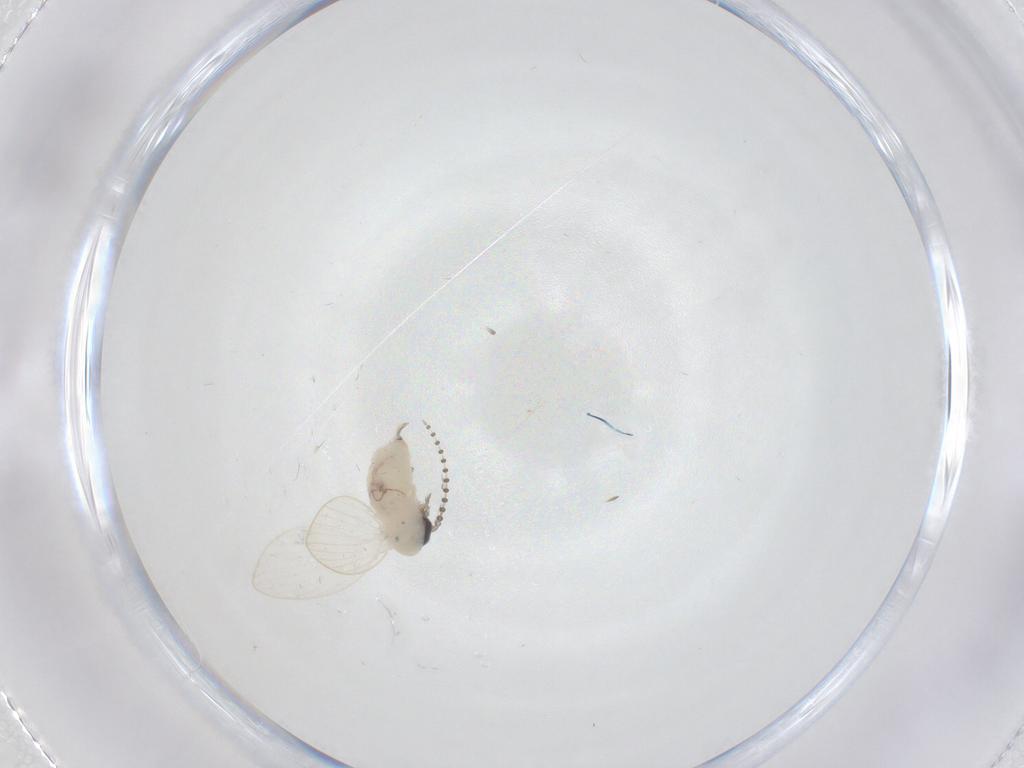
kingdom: Animalia
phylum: Arthropoda
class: Insecta
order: Diptera
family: Psychodidae
